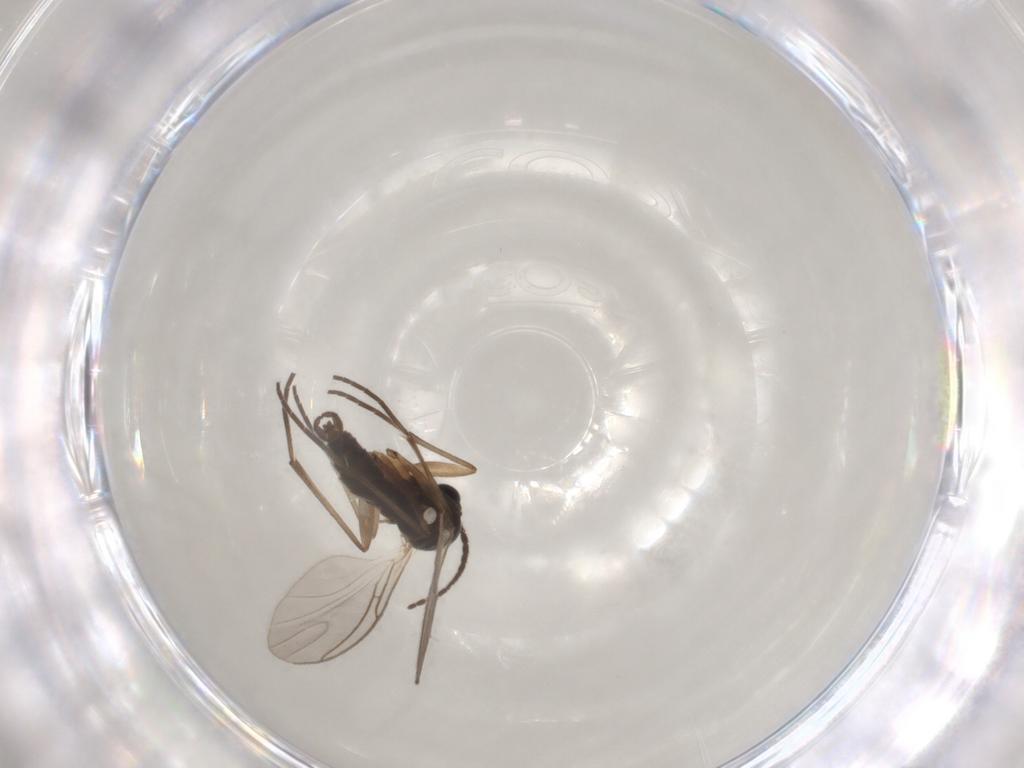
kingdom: Animalia
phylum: Arthropoda
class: Insecta
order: Diptera
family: Sciaridae
